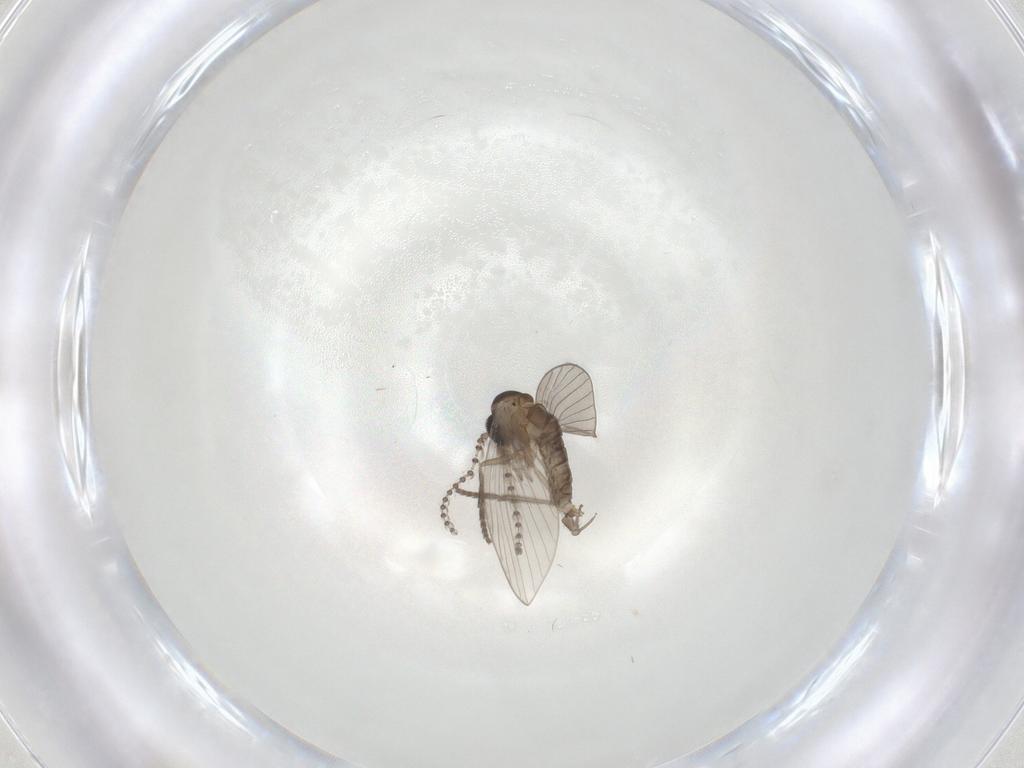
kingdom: Animalia
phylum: Arthropoda
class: Insecta
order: Diptera
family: Psychodidae
